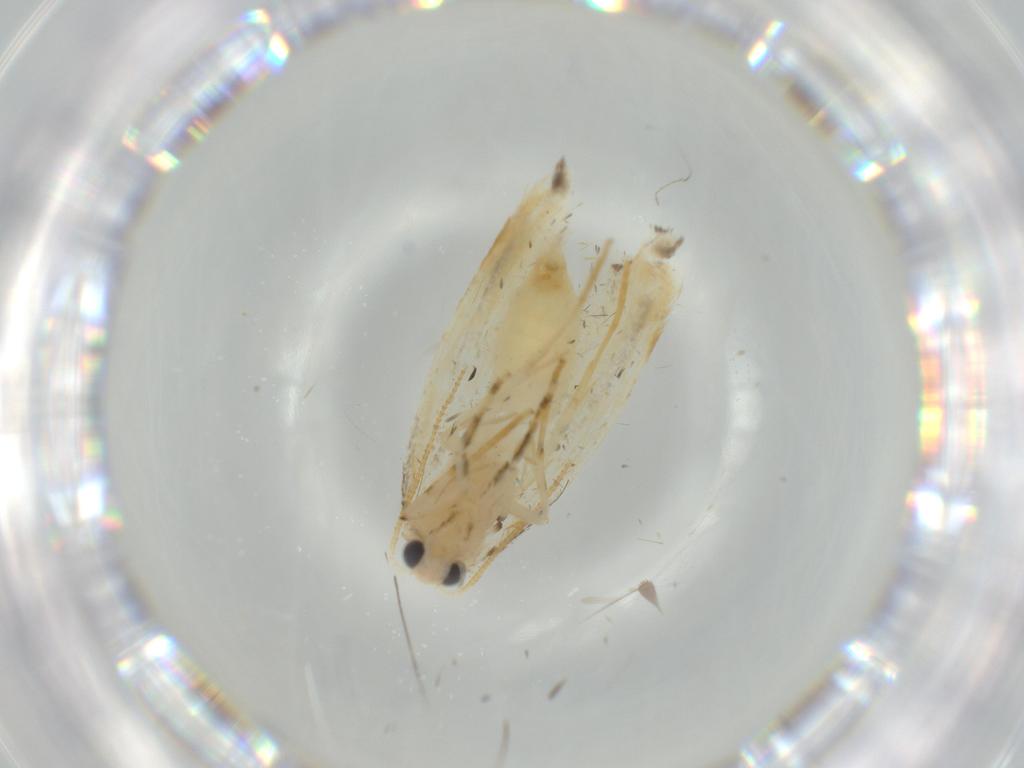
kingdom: Animalia
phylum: Arthropoda
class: Insecta
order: Lepidoptera
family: Tineidae
